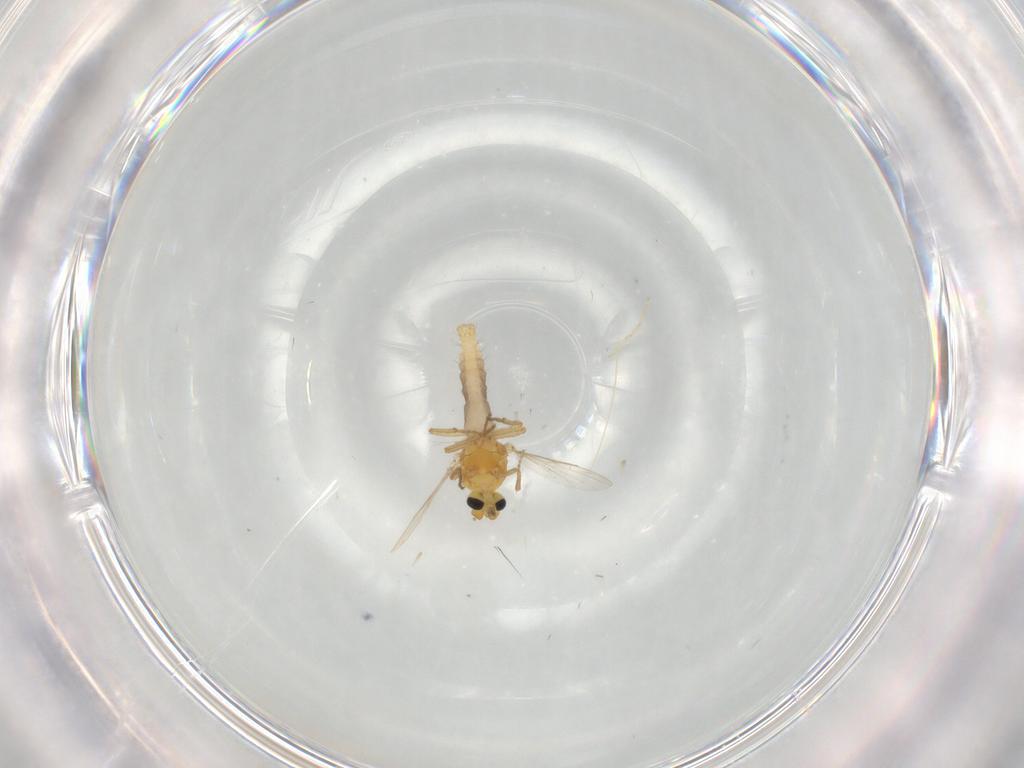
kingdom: Animalia
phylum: Arthropoda
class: Insecta
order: Diptera
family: Ceratopogonidae
